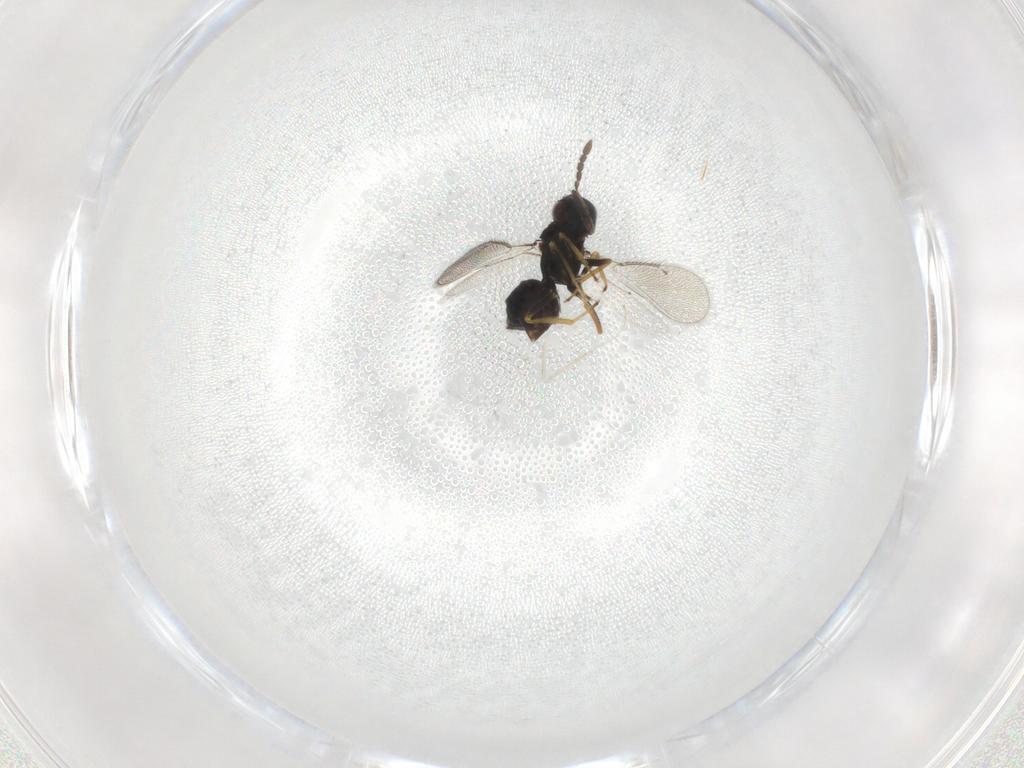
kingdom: Animalia
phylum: Arthropoda
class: Insecta
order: Hymenoptera
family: Eulophidae
